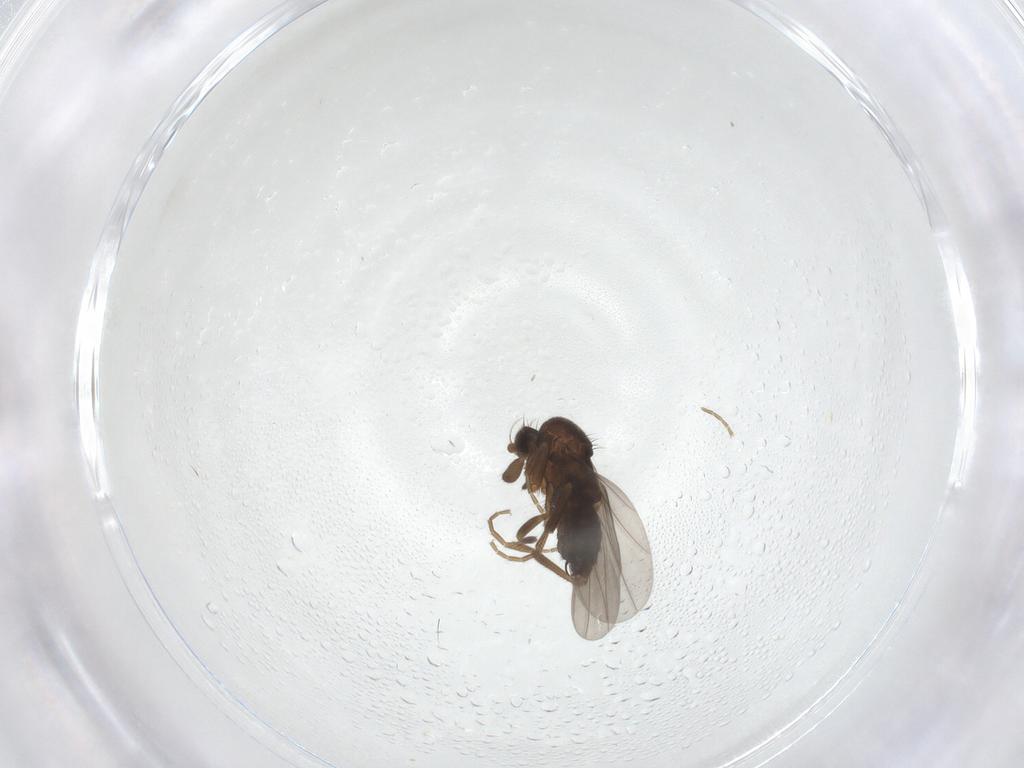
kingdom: Animalia
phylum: Arthropoda
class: Insecta
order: Diptera
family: Phoridae
